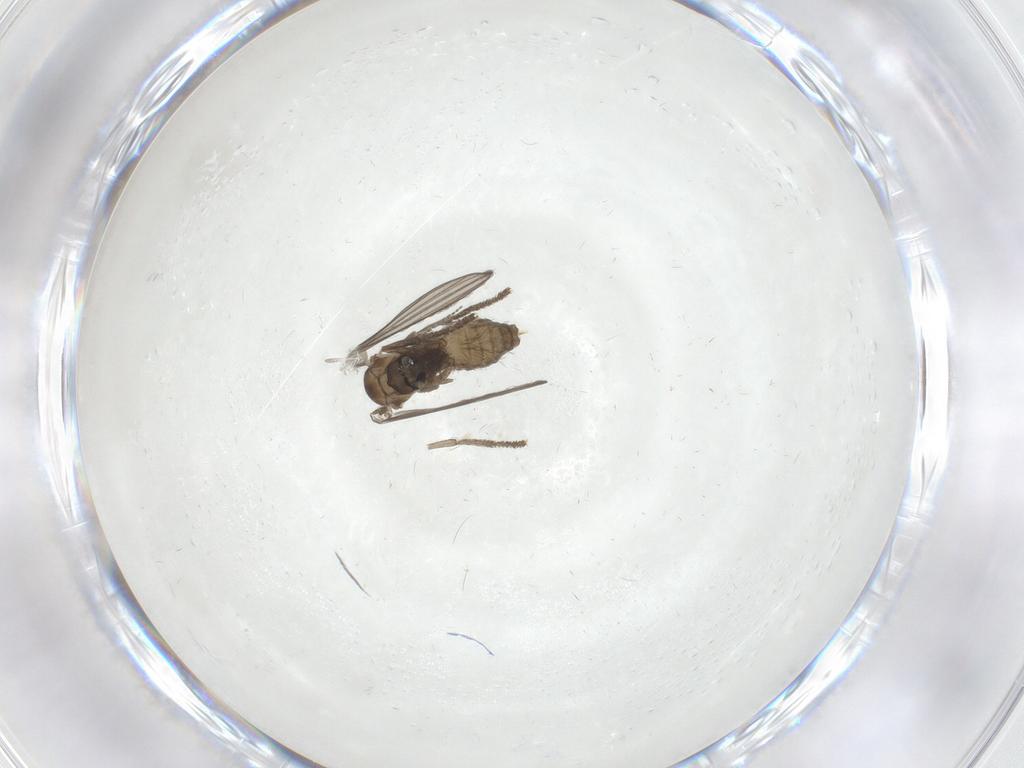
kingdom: Animalia
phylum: Arthropoda
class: Insecta
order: Diptera
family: Psychodidae
